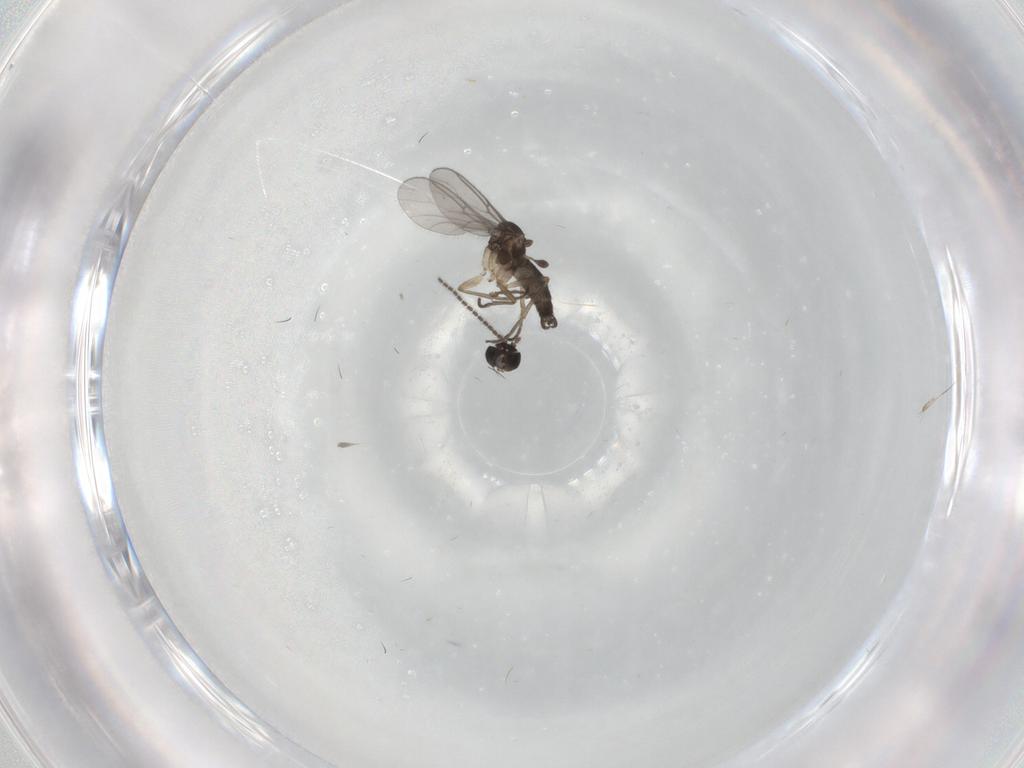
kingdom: Animalia
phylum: Arthropoda
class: Insecta
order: Diptera
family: Sciaridae
